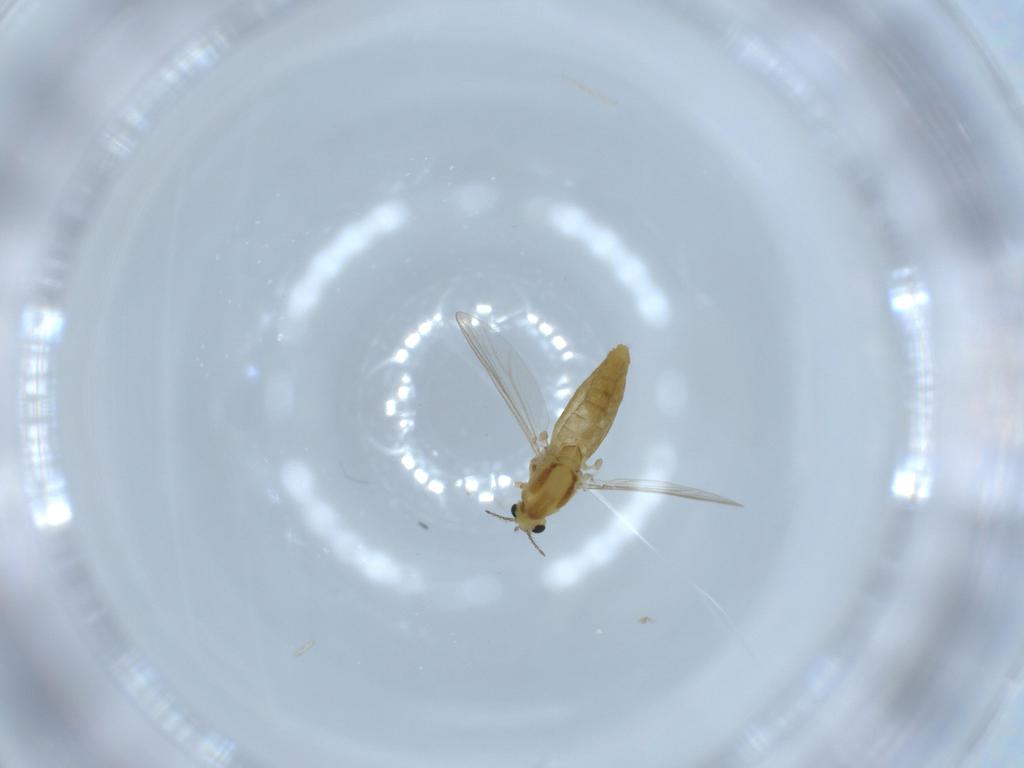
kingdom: Animalia
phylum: Arthropoda
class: Insecta
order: Diptera
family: Chironomidae
